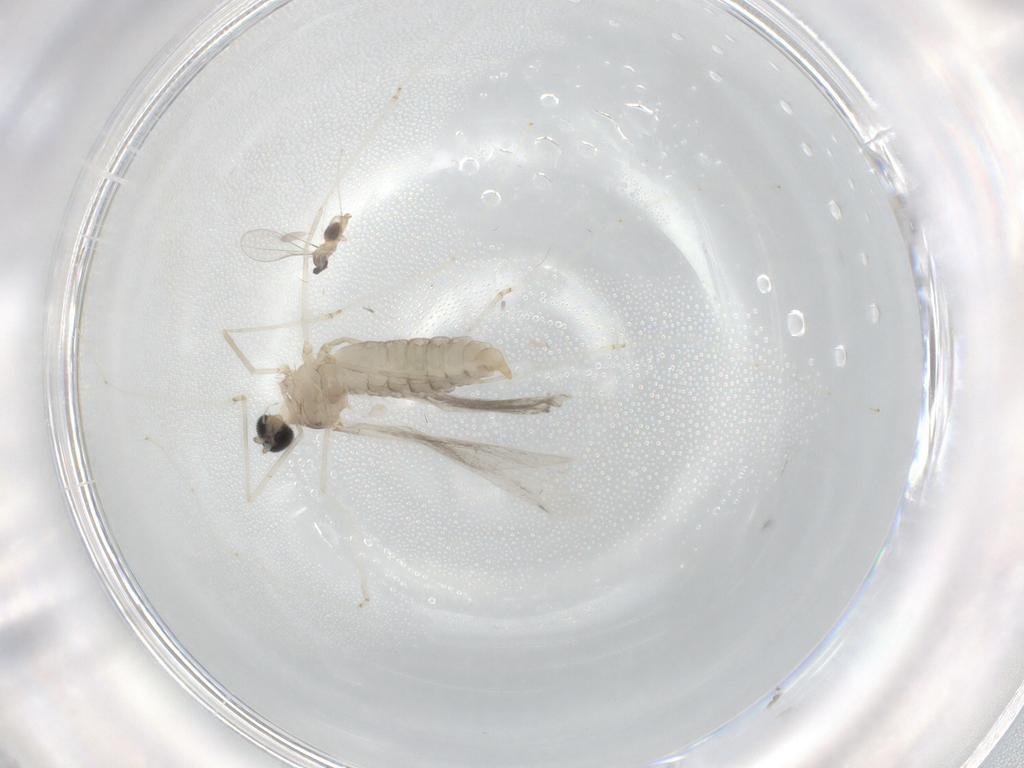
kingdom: Animalia
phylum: Arthropoda
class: Insecta
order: Diptera
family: Cecidomyiidae
